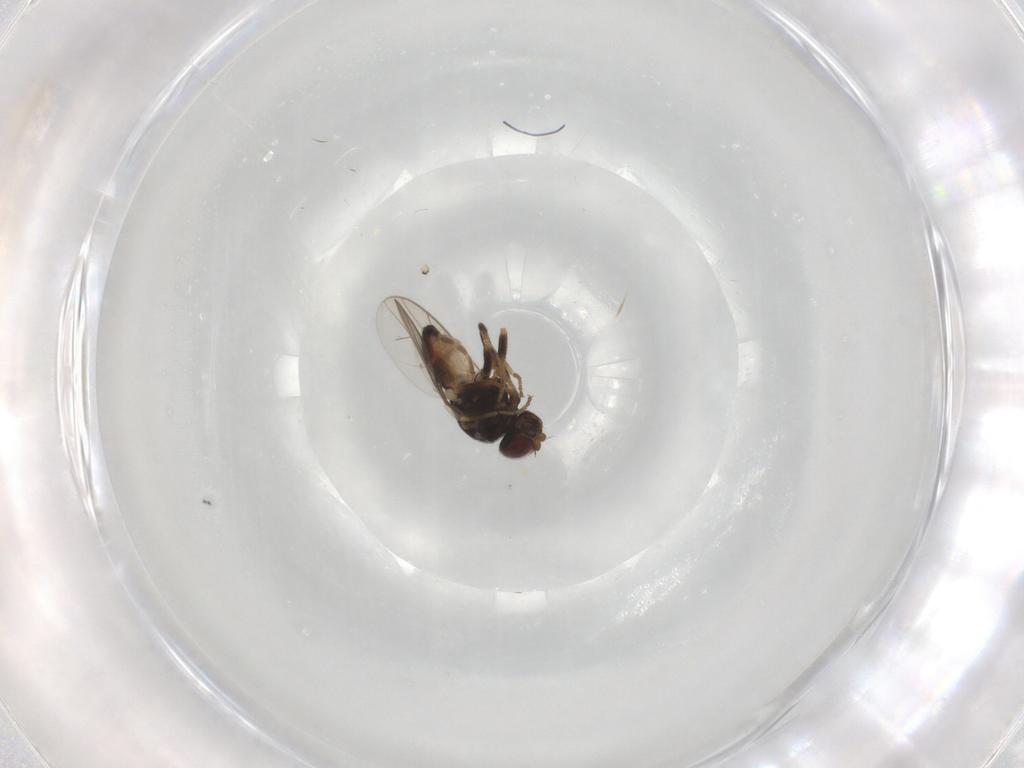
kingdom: Animalia
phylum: Arthropoda
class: Insecta
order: Diptera
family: Chloropidae
